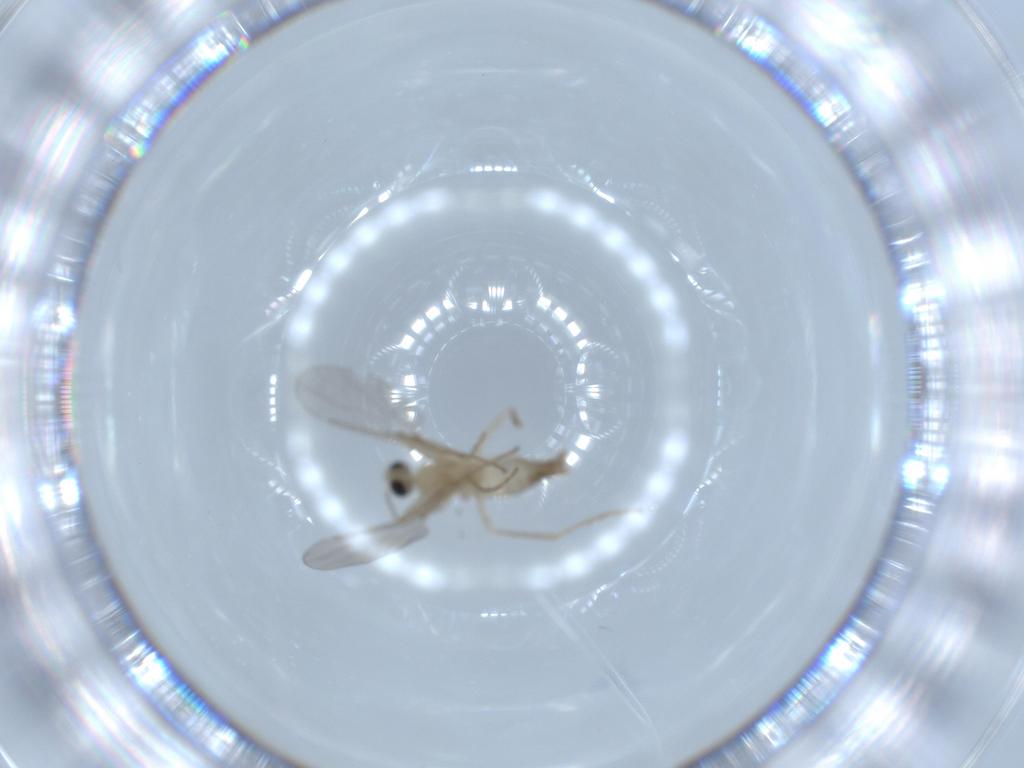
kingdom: Animalia
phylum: Arthropoda
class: Insecta
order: Diptera
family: Cecidomyiidae
